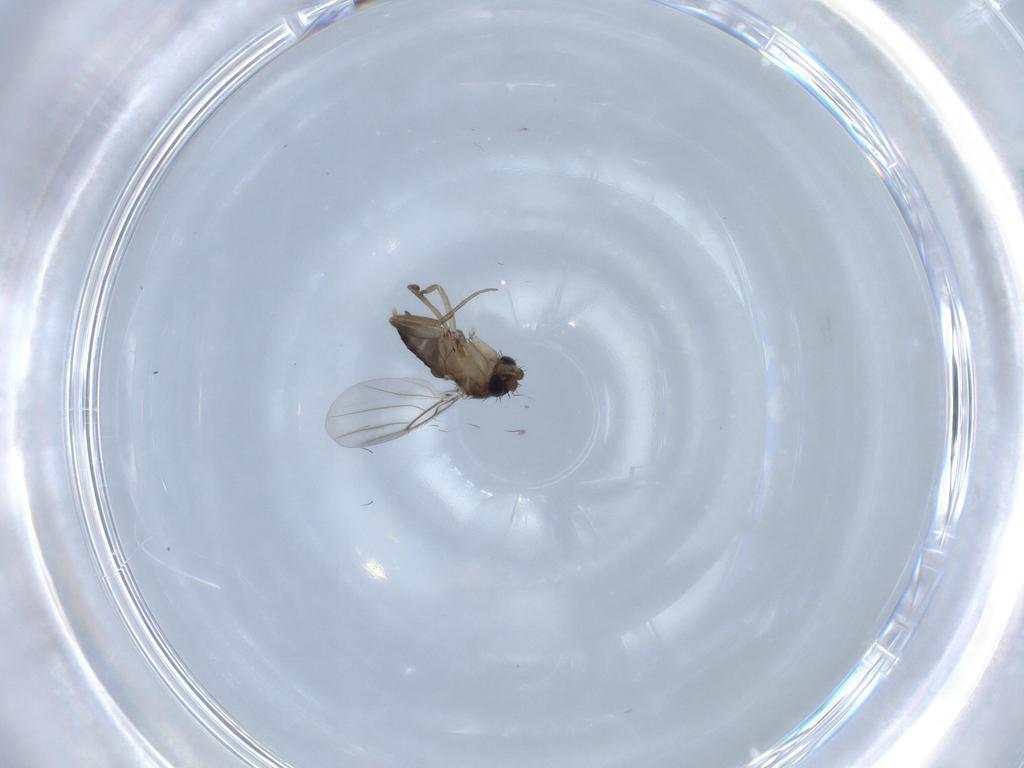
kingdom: Animalia
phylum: Arthropoda
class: Insecta
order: Diptera
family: Phoridae
